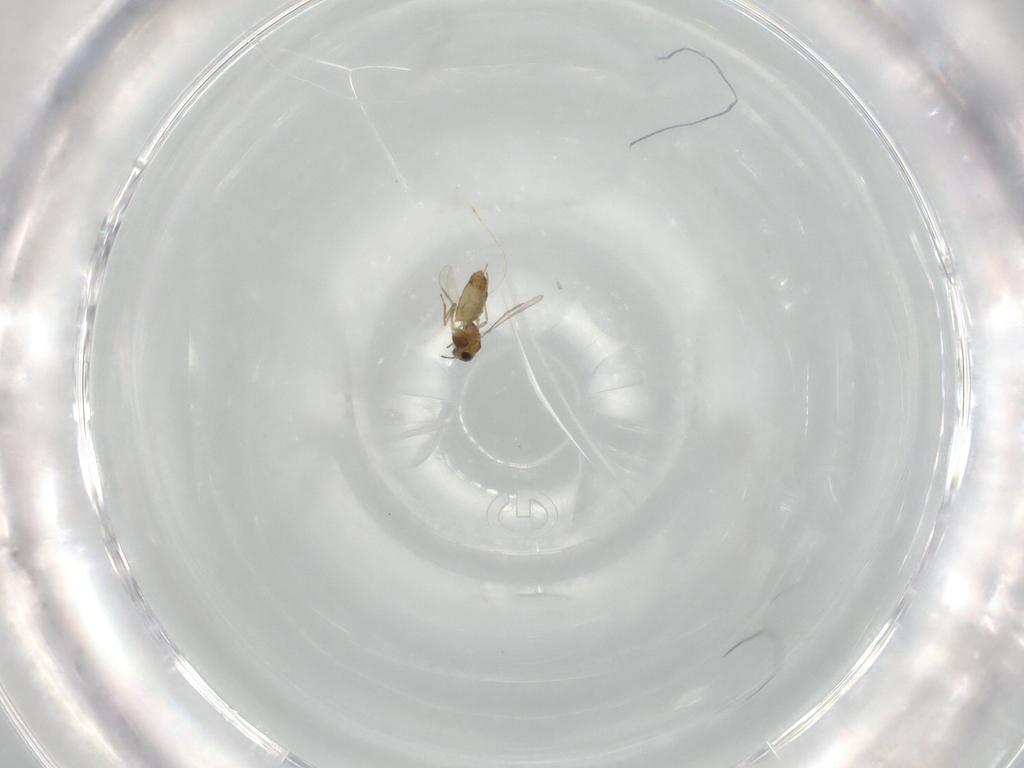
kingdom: Animalia
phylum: Arthropoda
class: Insecta
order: Diptera
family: Chironomidae
